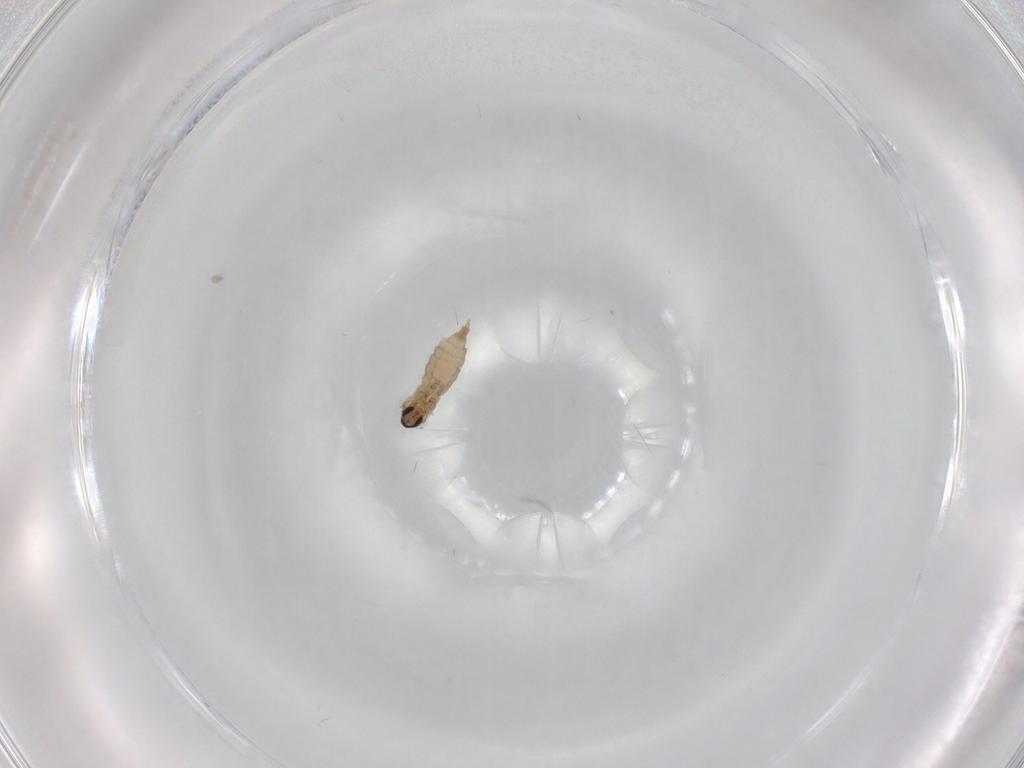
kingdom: Animalia
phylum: Arthropoda
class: Insecta
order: Diptera
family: Cecidomyiidae
